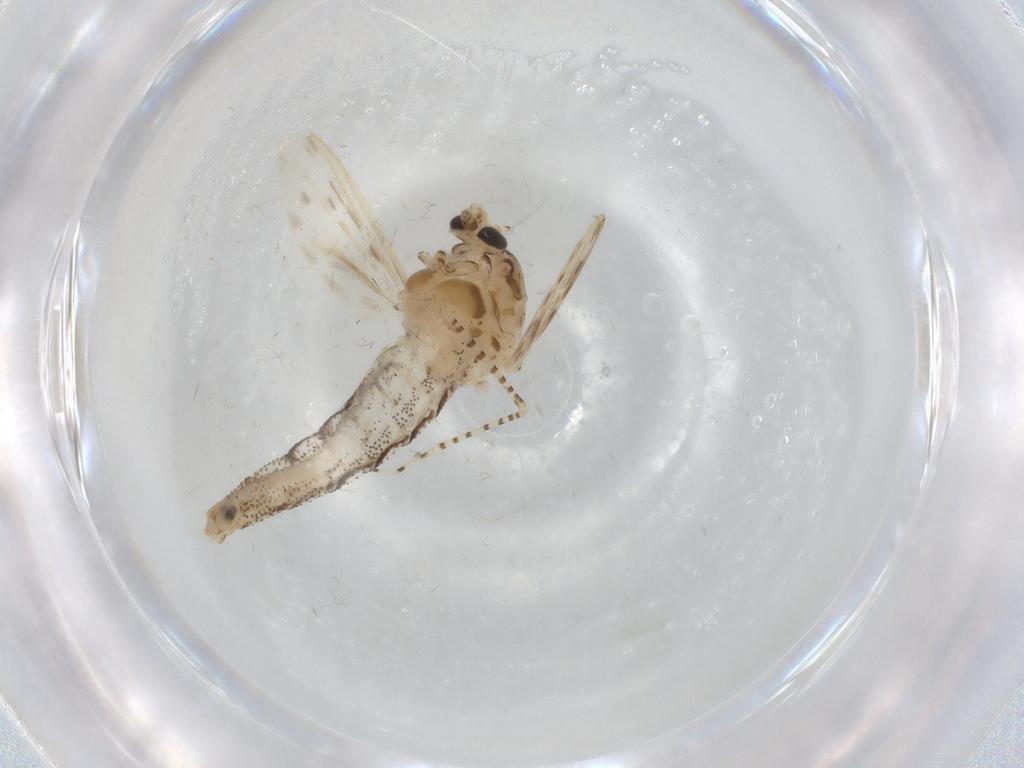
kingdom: Animalia
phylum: Arthropoda
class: Insecta
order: Diptera
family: Chaoboridae
